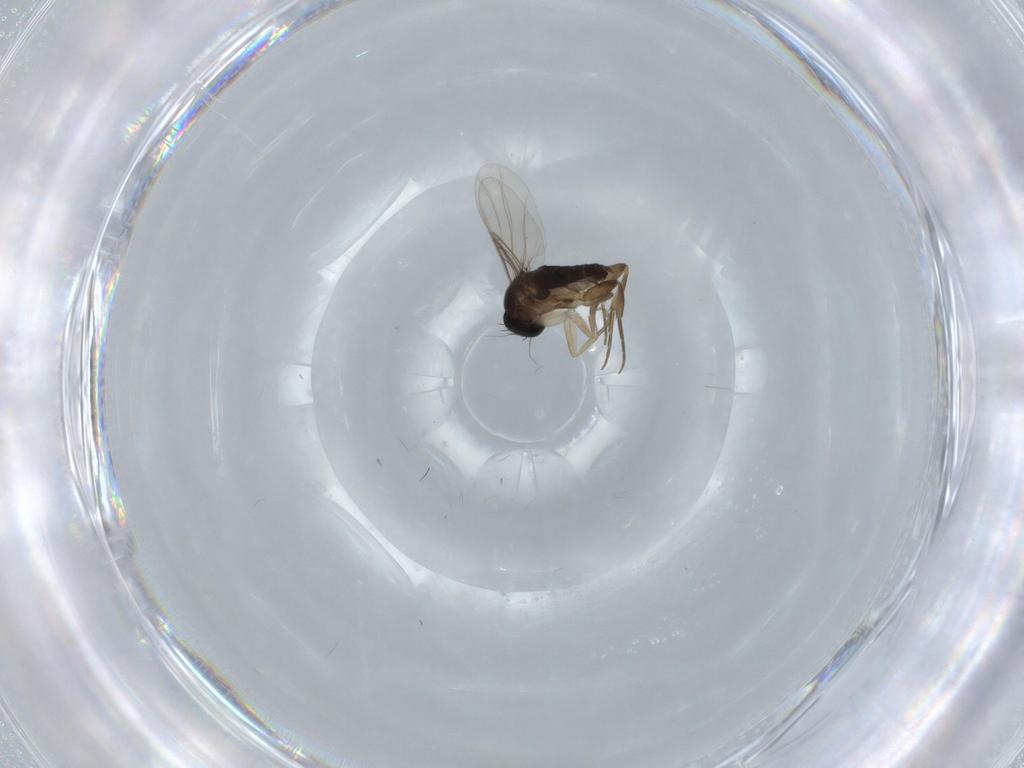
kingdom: Animalia
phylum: Arthropoda
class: Insecta
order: Diptera
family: Phoridae
